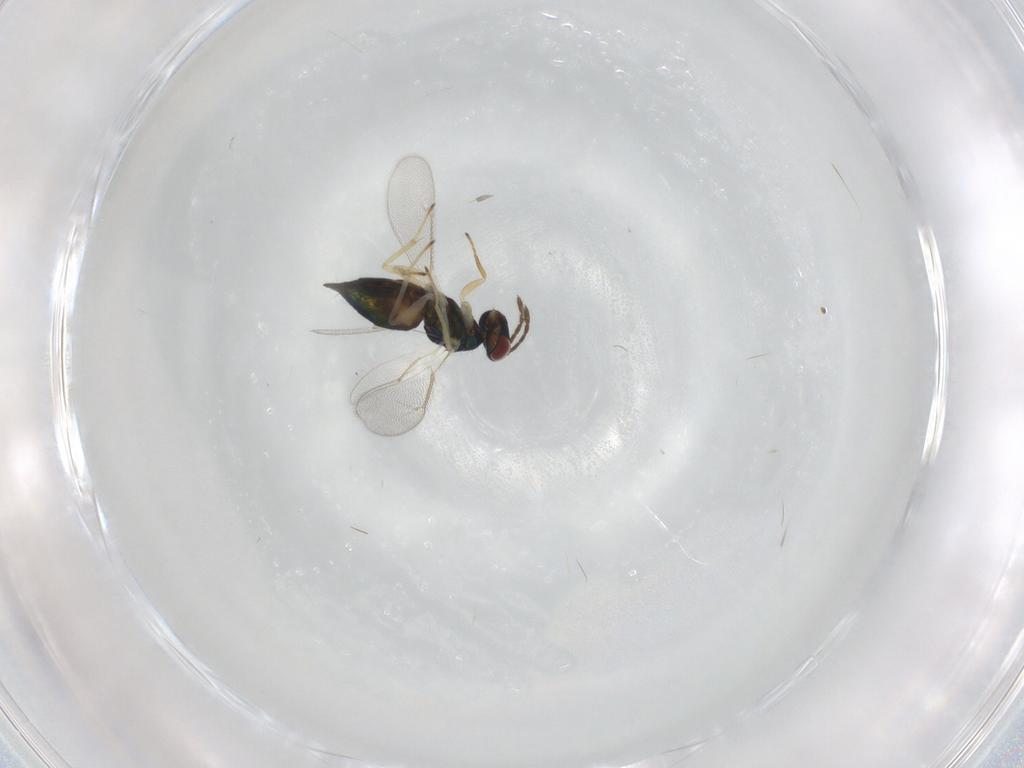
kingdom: Animalia
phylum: Arthropoda
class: Insecta
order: Hymenoptera
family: Eulophidae
